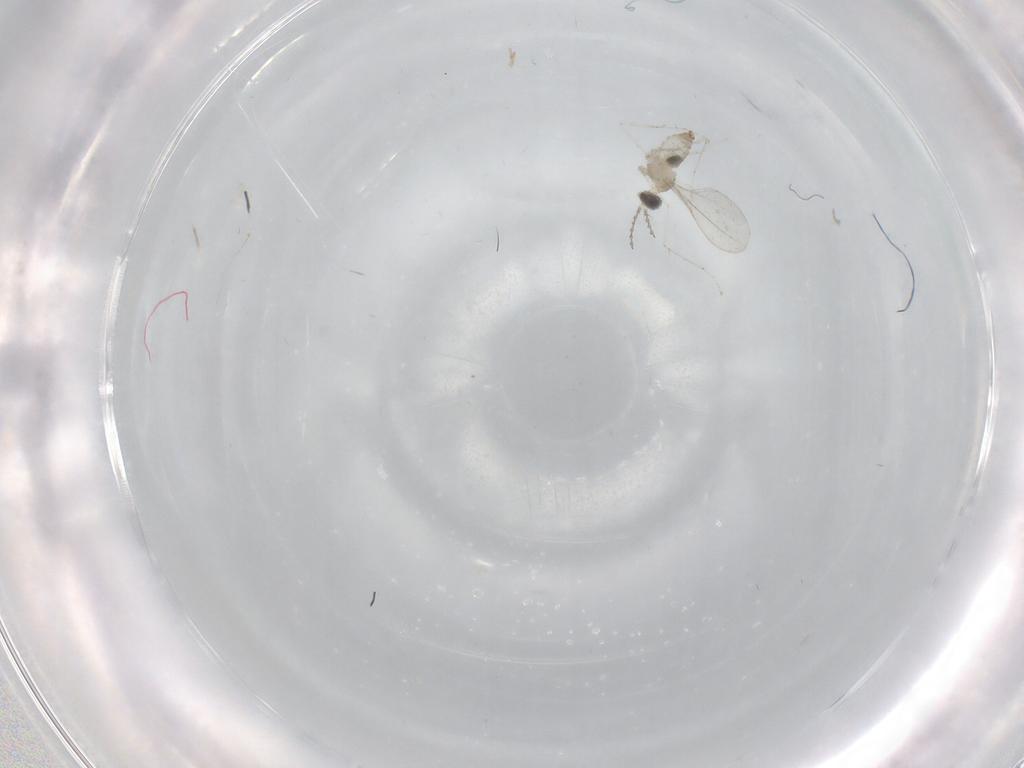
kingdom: Animalia
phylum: Arthropoda
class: Insecta
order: Diptera
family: Cecidomyiidae
